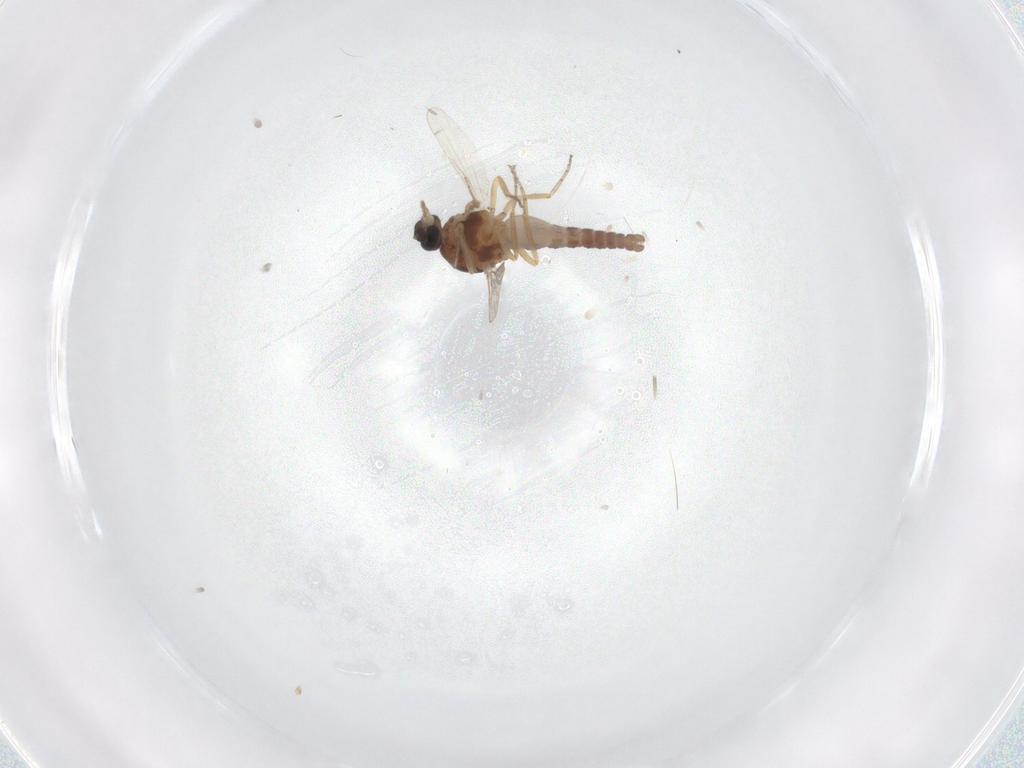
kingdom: Animalia
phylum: Arthropoda
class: Insecta
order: Diptera
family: Ceratopogonidae
